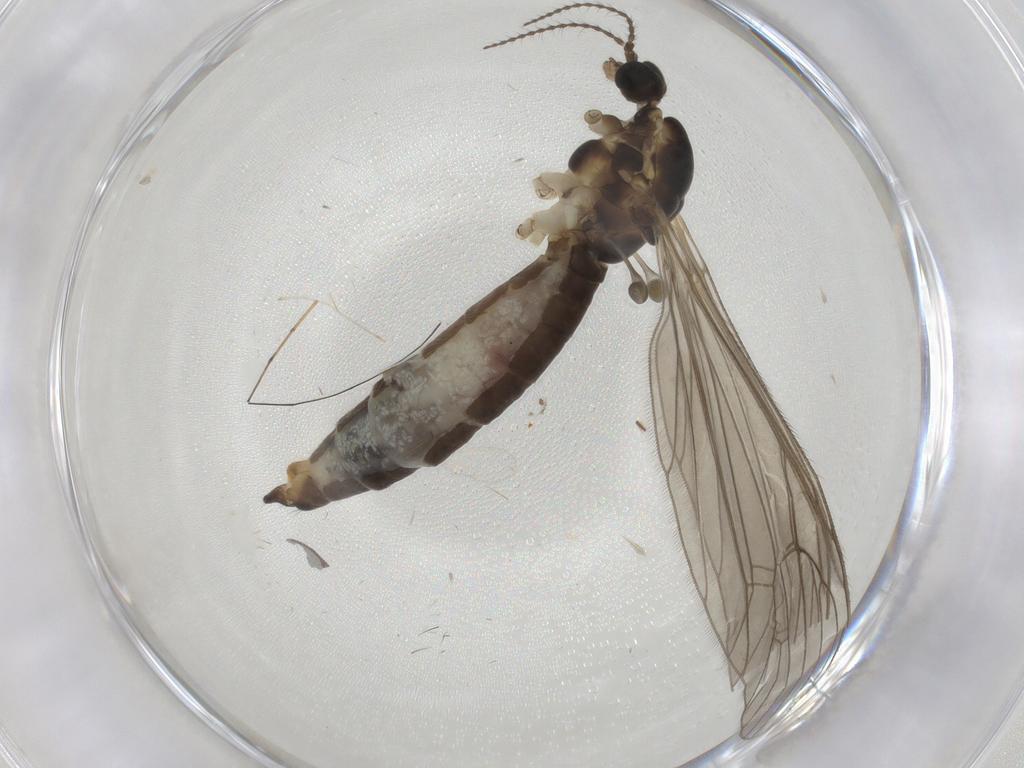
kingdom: Animalia
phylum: Arthropoda
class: Insecta
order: Diptera
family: Limoniidae
